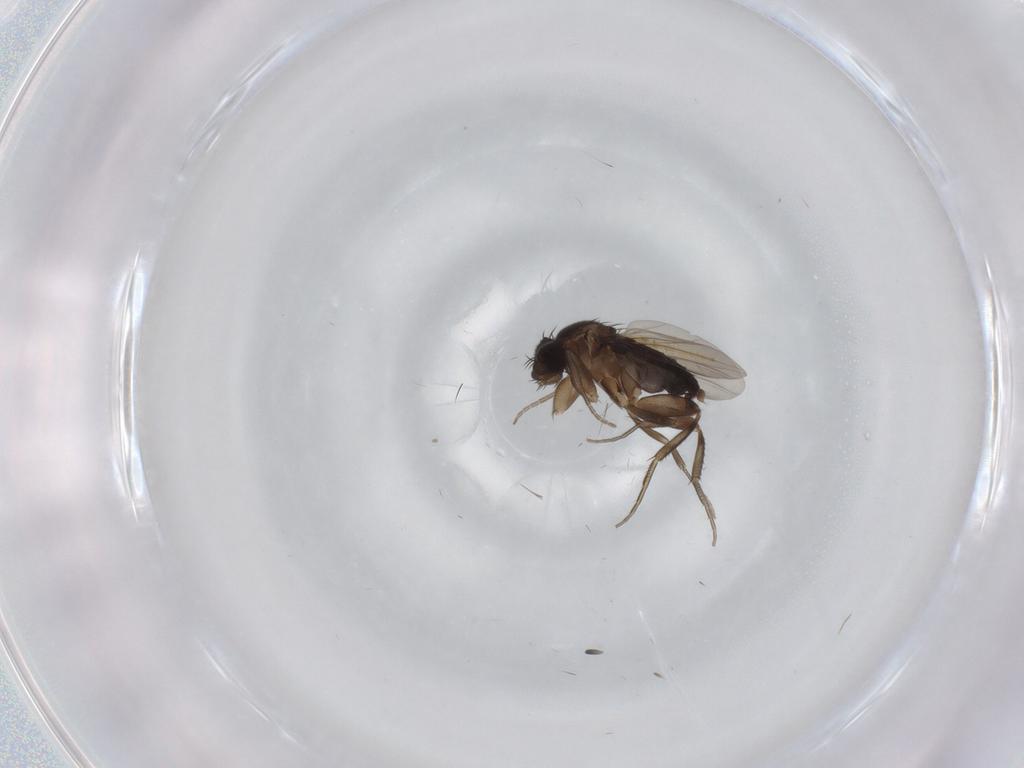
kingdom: Animalia
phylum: Arthropoda
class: Insecta
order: Diptera
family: Phoridae
